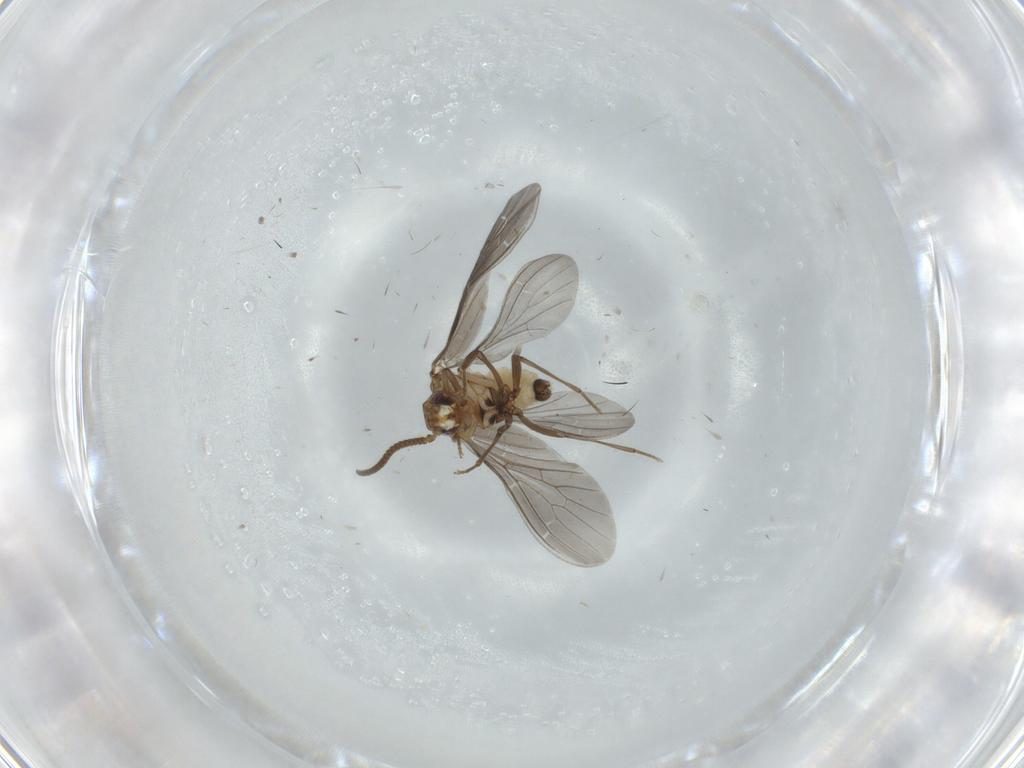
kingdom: Animalia
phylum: Arthropoda
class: Insecta
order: Neuroptera
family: Coniopterygidae
